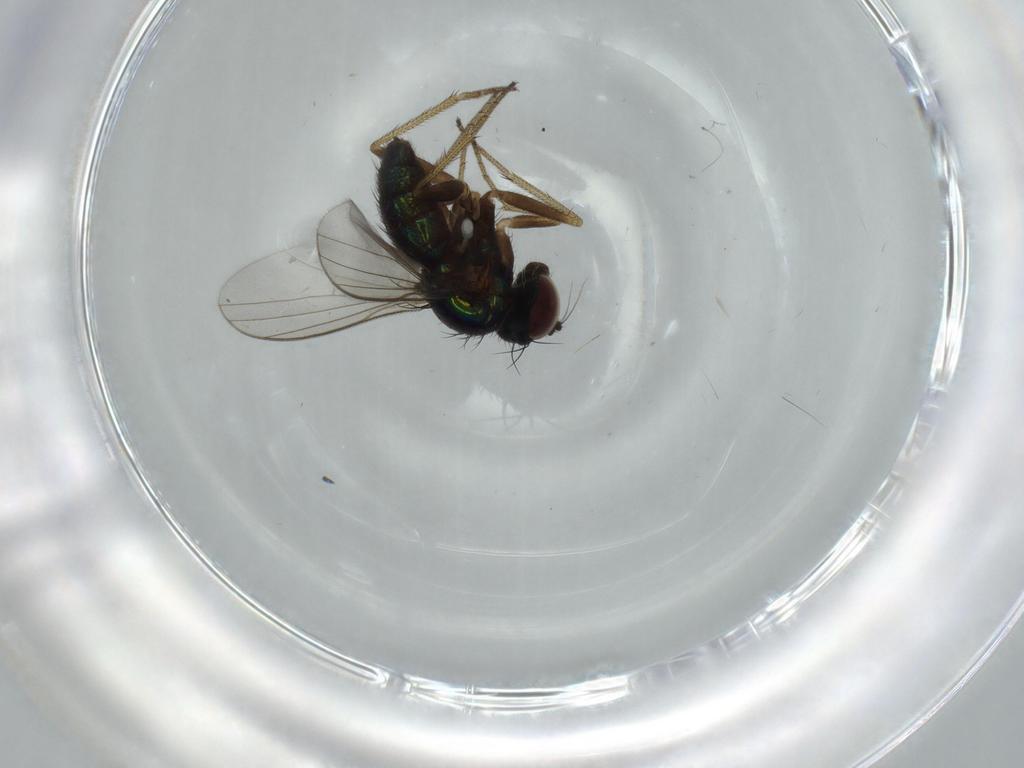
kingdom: Animalia
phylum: Arthropoda
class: Insecta
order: Diptera
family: Dolichopodidae
